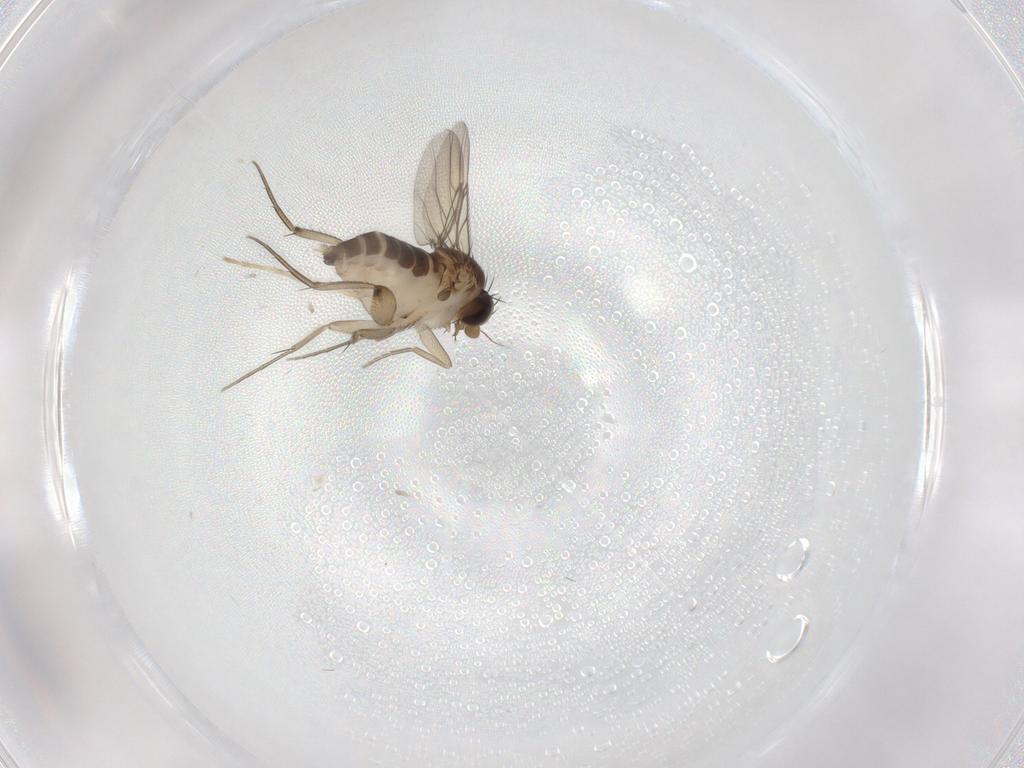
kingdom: Animalia
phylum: Arthropoda
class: Insecta
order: Diptera
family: Phoridae
